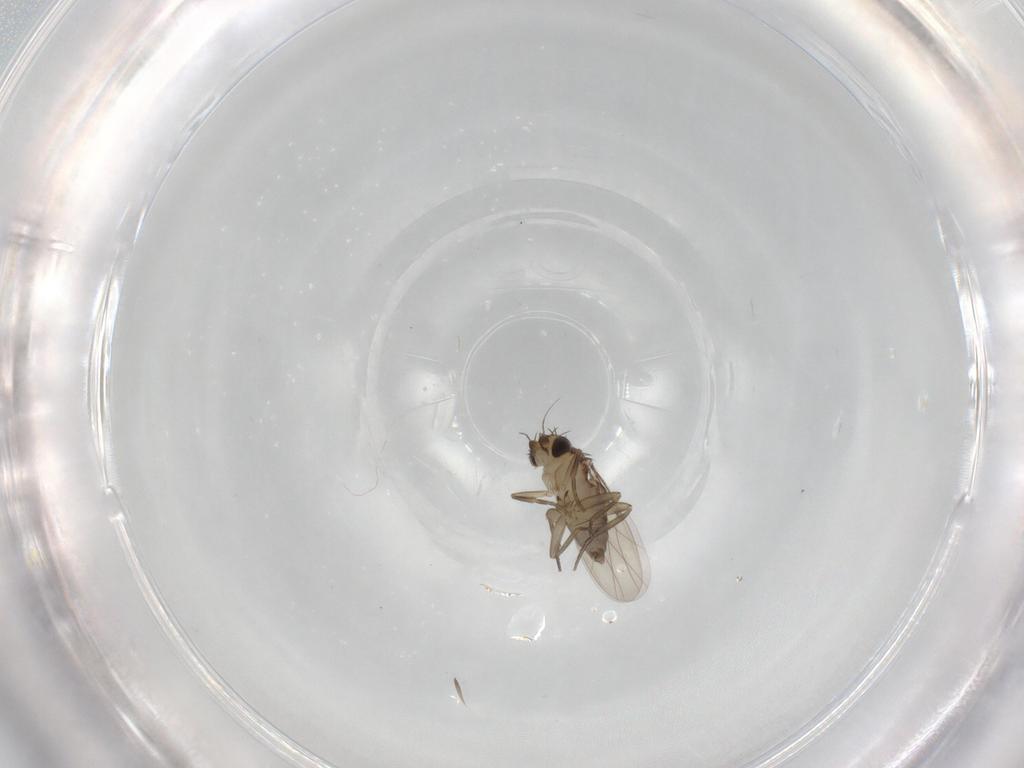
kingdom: Animalia
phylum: Arthropoda
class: Insecta
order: Diptera
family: Phoridae
